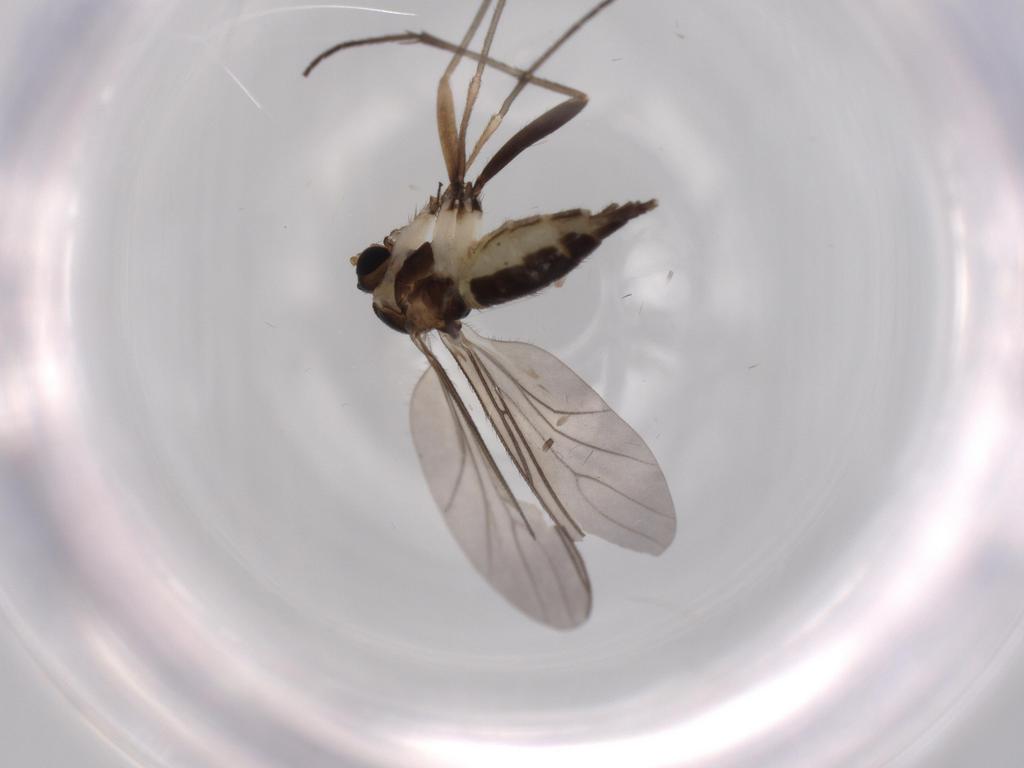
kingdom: Animalia
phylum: Arthropoda
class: Insecta
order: Diptera
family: Sciaridae
